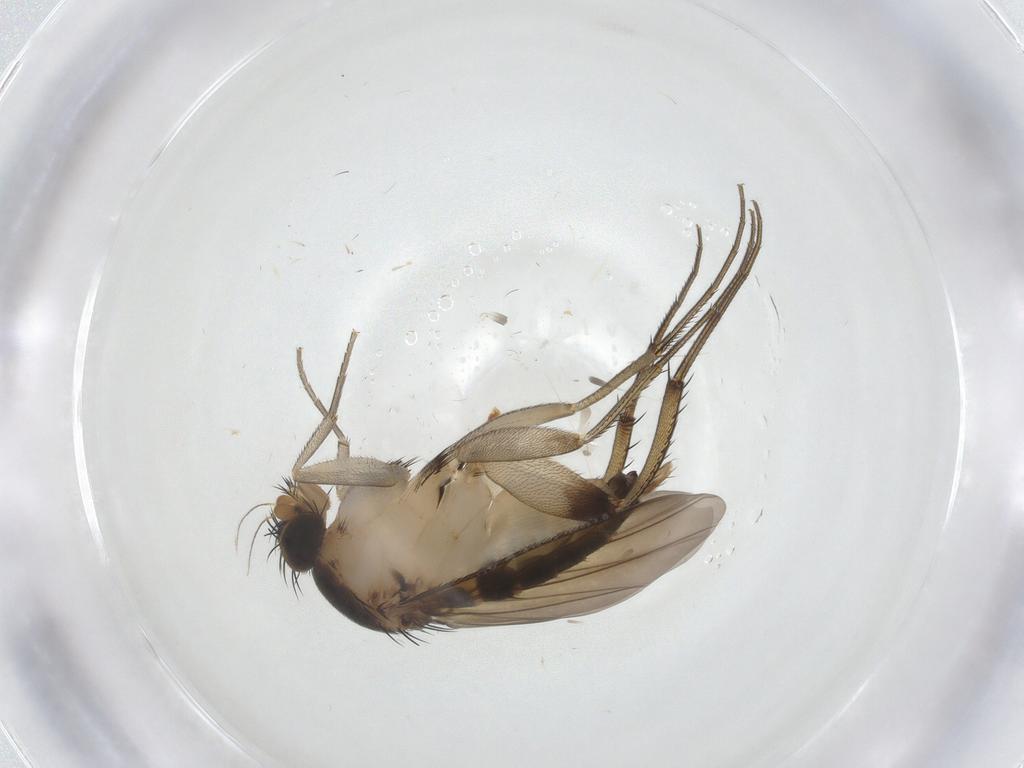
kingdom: Animalia
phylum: Arthropoda
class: Insecta
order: Diptera
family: Phoridae
